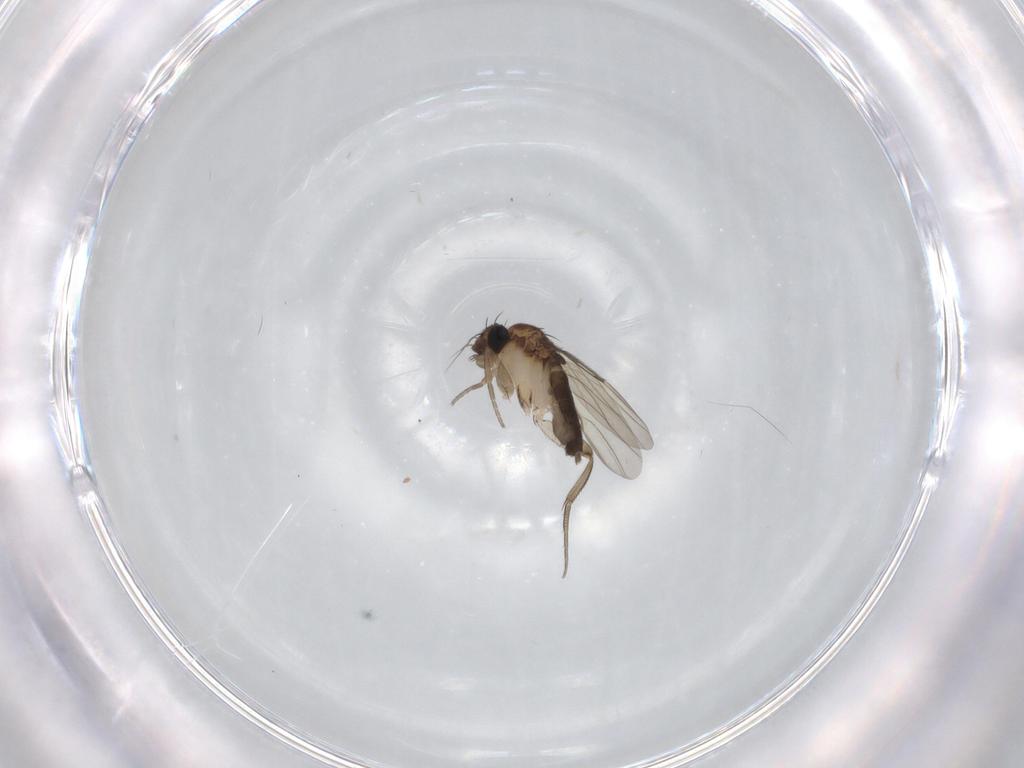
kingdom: Animalia
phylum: Arthropoda
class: Insecta
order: Diptera
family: Phoridae
